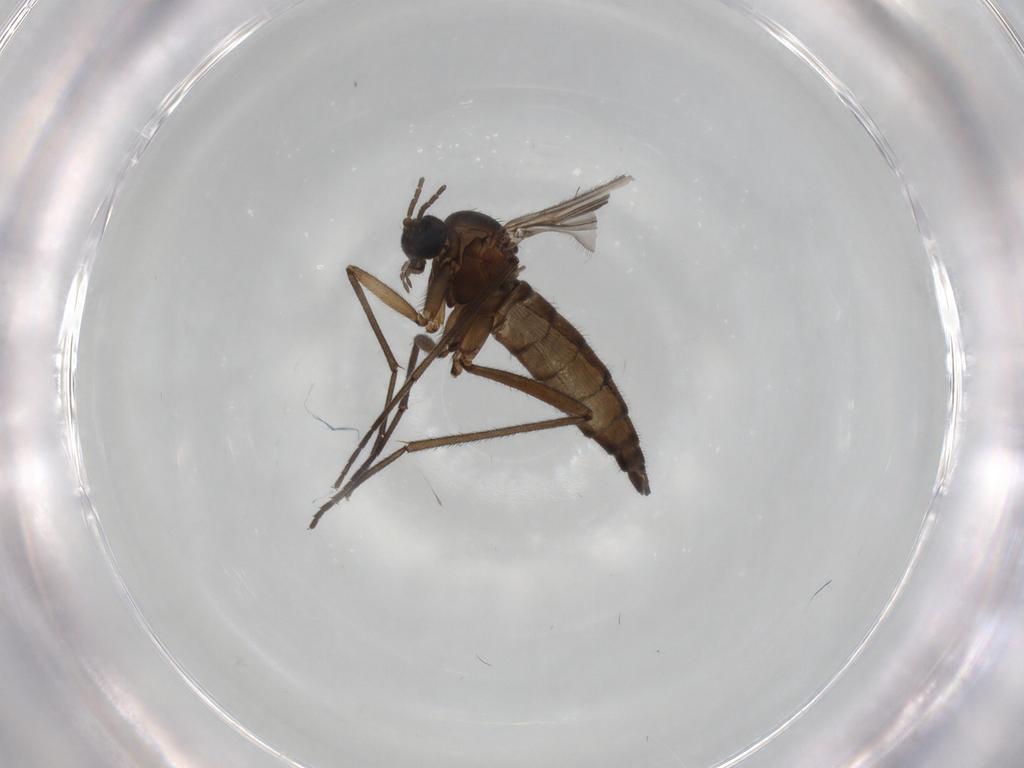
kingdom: Animalia
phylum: Arthropoda
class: Insecta
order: Diptera
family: Sciaridae
